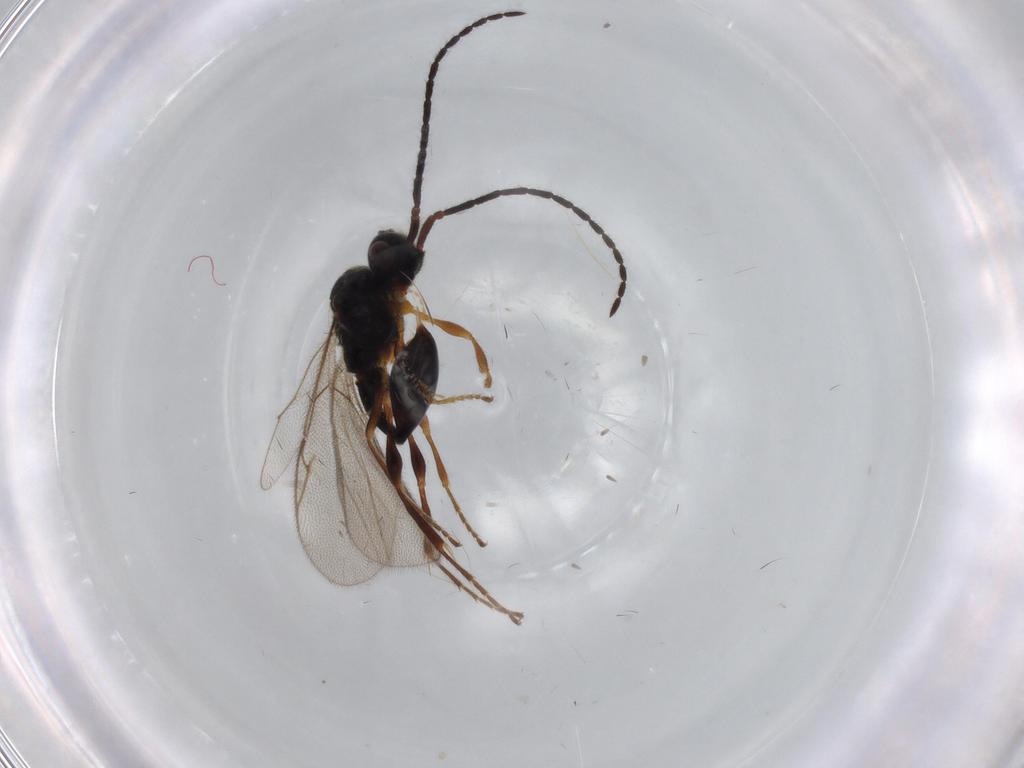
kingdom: Animalia
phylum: Arthropoda
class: Insecta
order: Hymenoptera
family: Diapriidae
